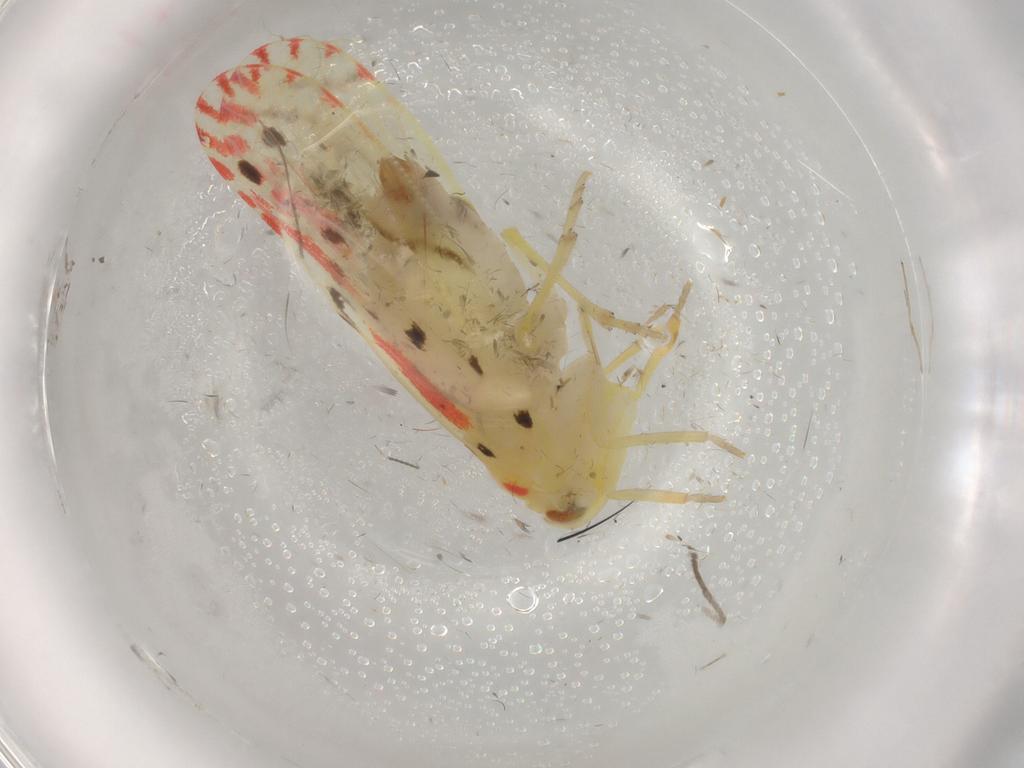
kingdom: Animalia
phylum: Arthropoda
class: Insecta
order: Hemiptera
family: Derbidae
